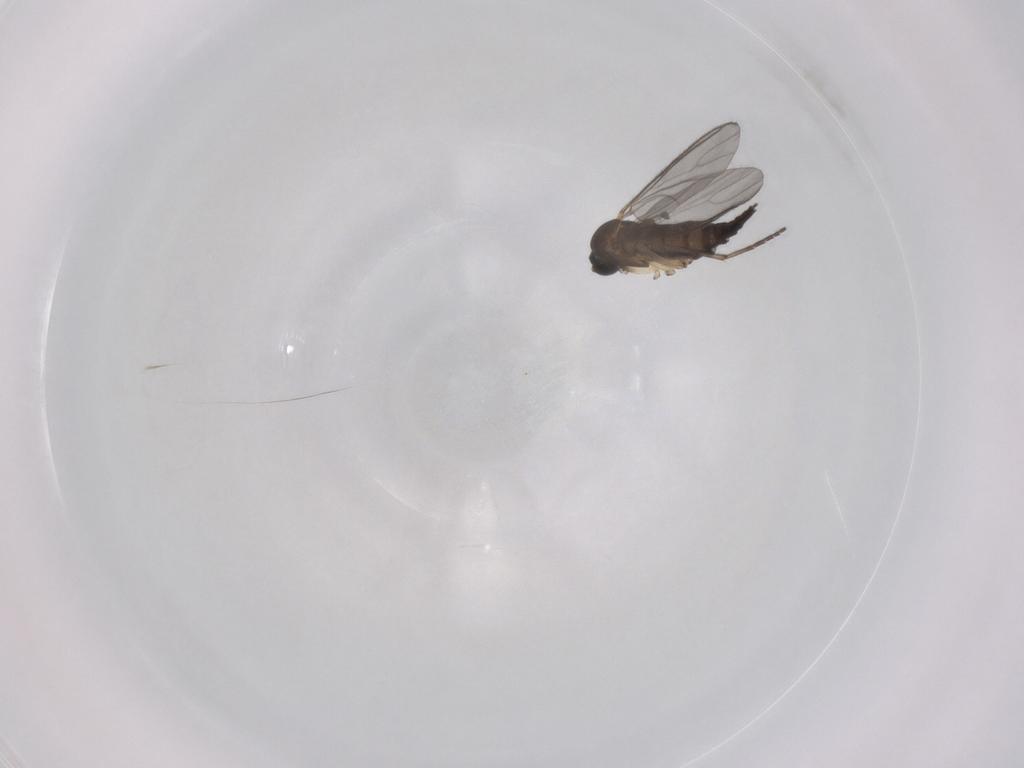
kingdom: Animalia
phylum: Arthropoda
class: Insecta
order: Diptera
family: Sciaridae
